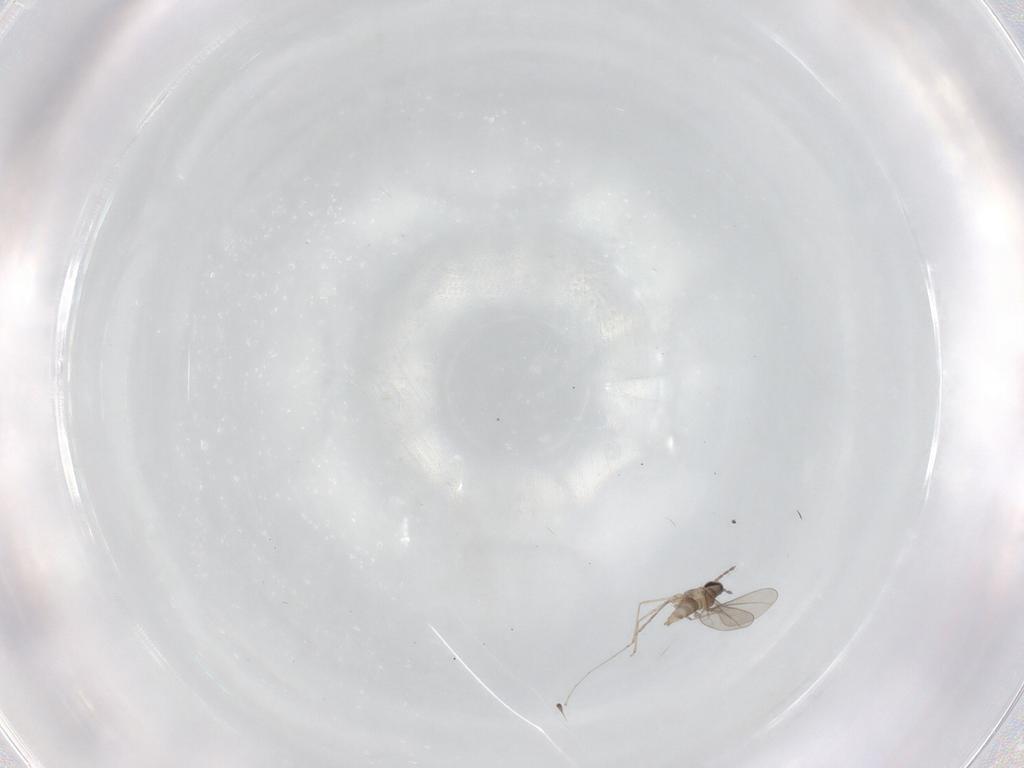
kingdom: Animalia
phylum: Arthropoda
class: Insecta
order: Diptera
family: Cecidomyiidae
